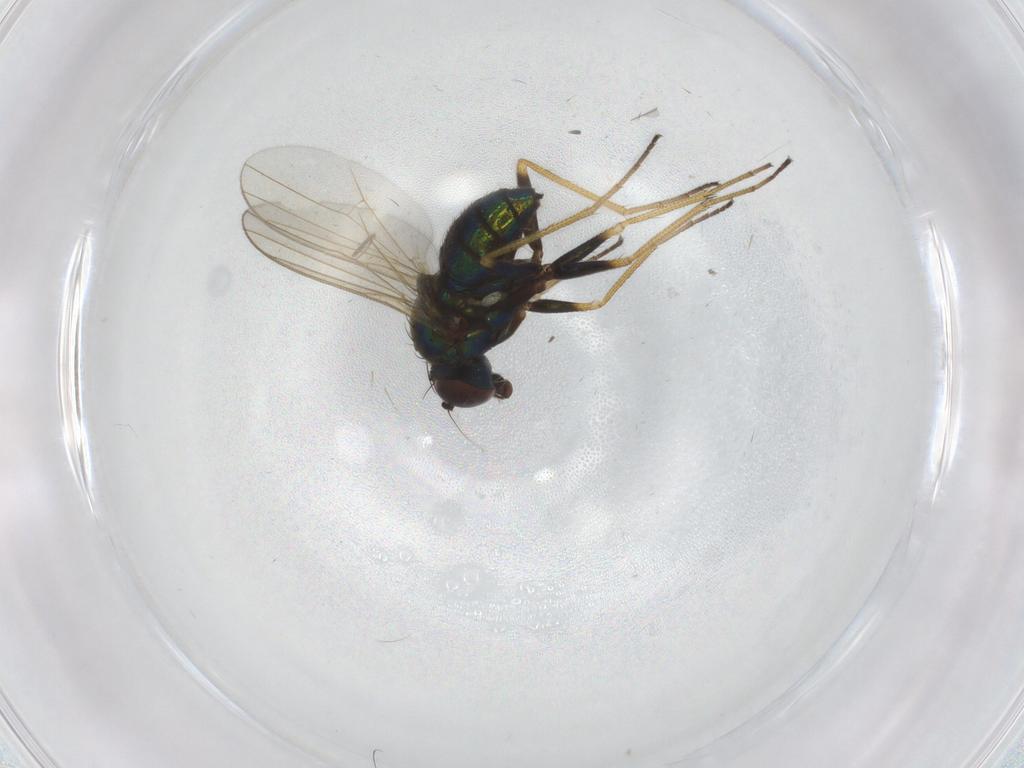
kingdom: Animalia
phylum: Arthropoda
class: Insecta
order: Diptera
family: Dolichopodidae
